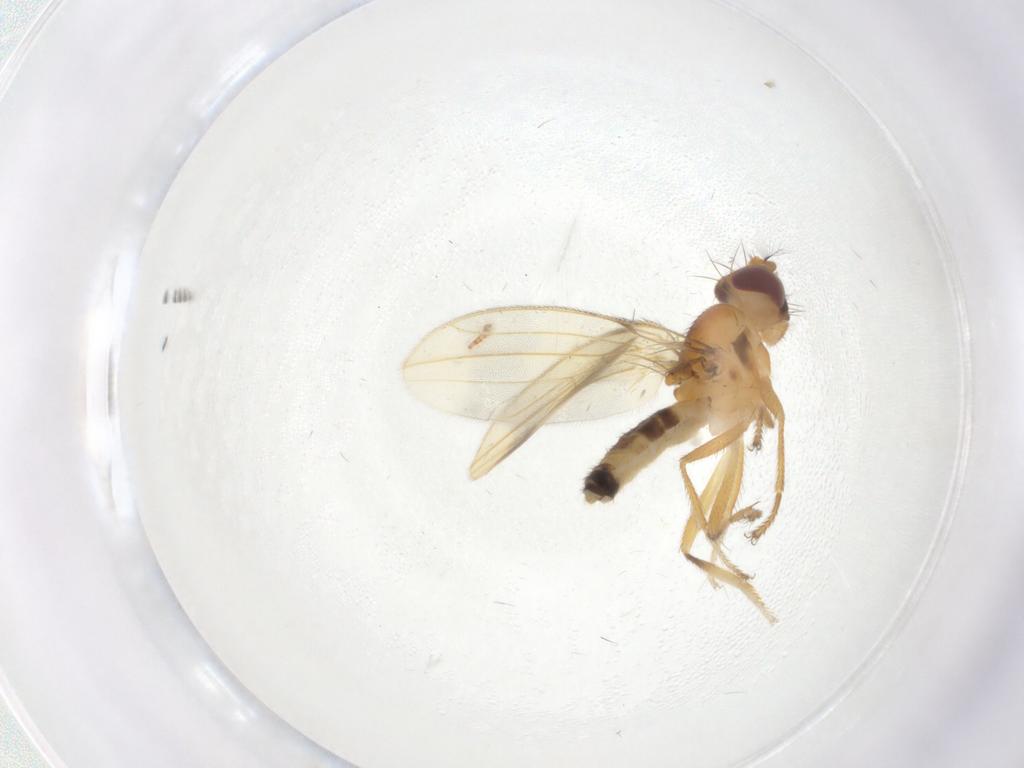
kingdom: Animalia
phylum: Arthropoda
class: Insecta
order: Diptera
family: Periscelididae
